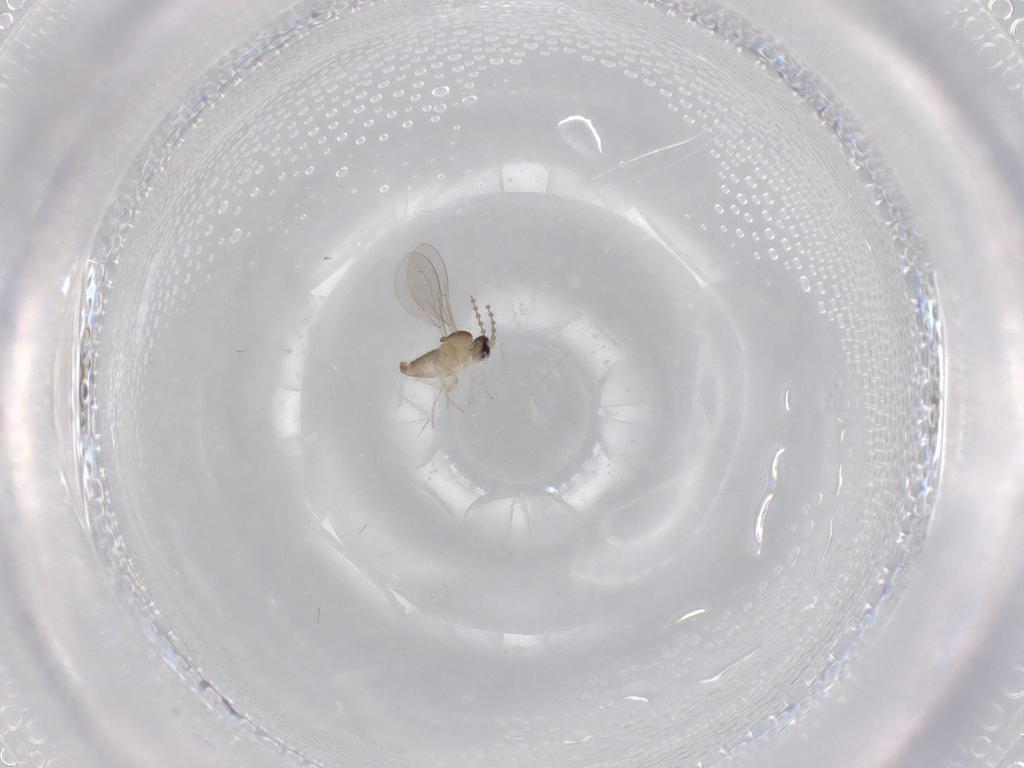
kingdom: Animalia
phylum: Arthropoda
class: Insecta
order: Diptera
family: Cecidomyiidae
